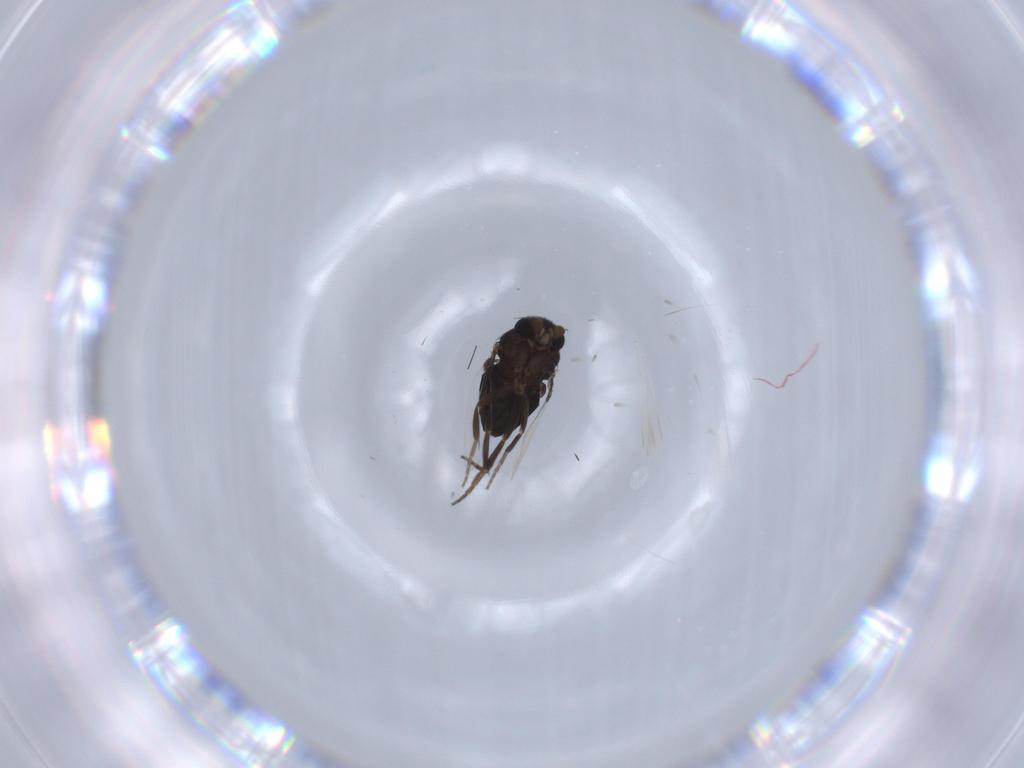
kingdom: Animalia
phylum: Arthropoda
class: Insecta
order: Diptera
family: Phoridae
